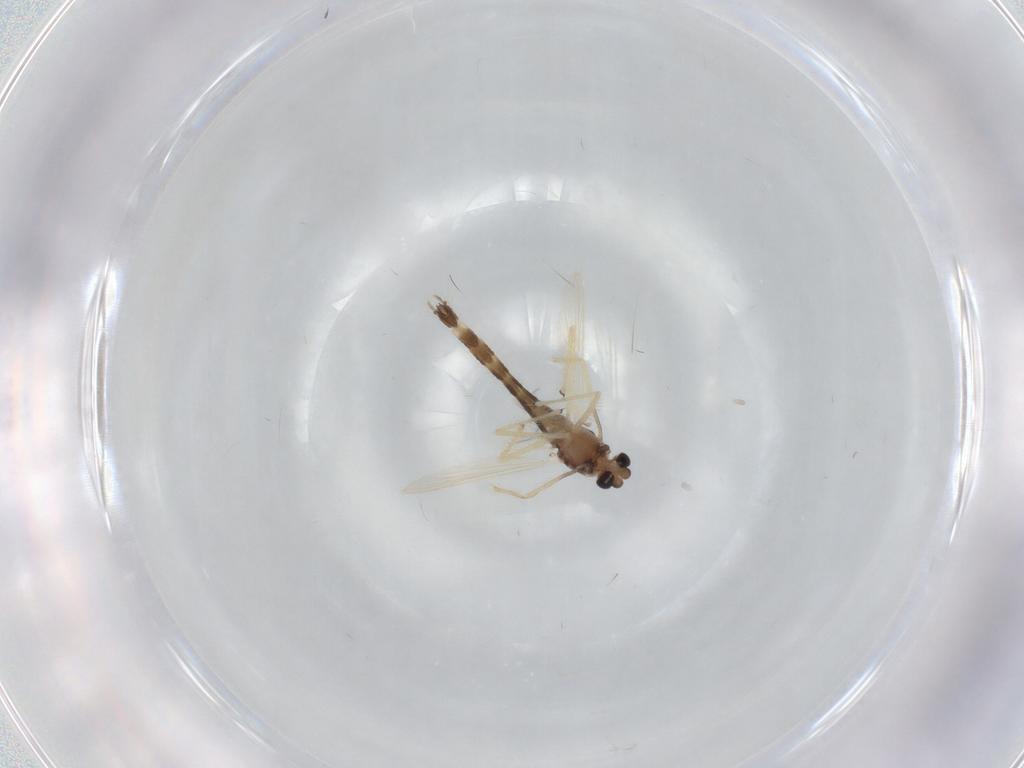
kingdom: Animalia
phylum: Arthropoda
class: Insecta
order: Diptera
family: Chironomidae
